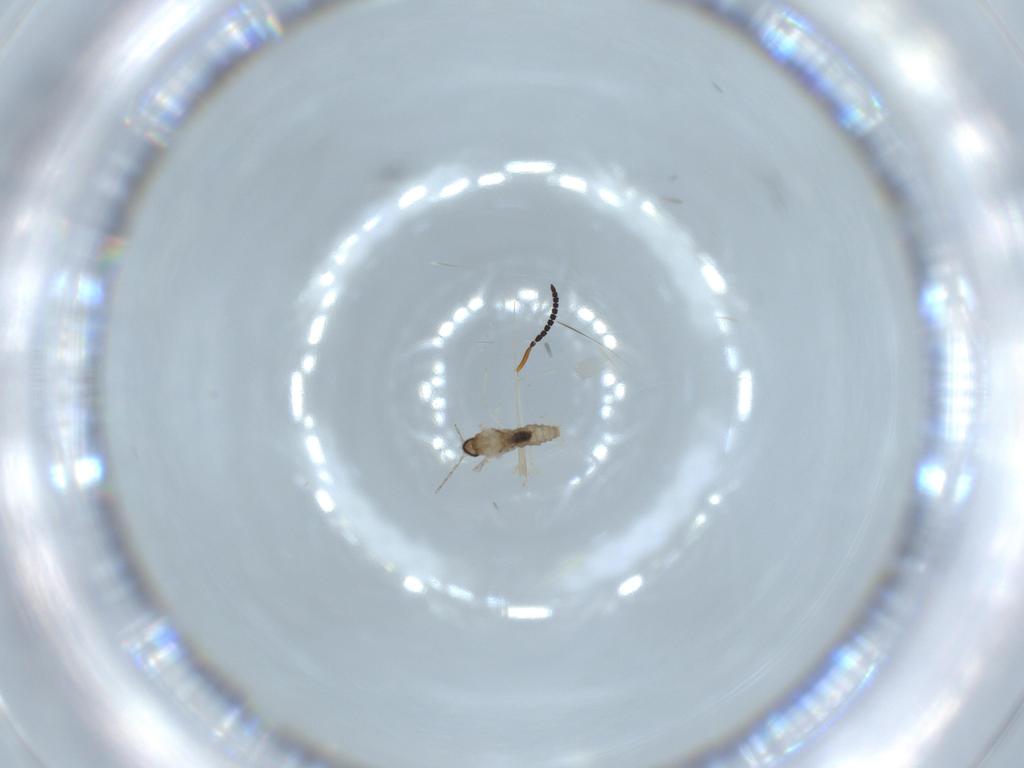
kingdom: Animalia
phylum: Arthropoda
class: Insecta
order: Diptera
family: Cecidomyiidae
